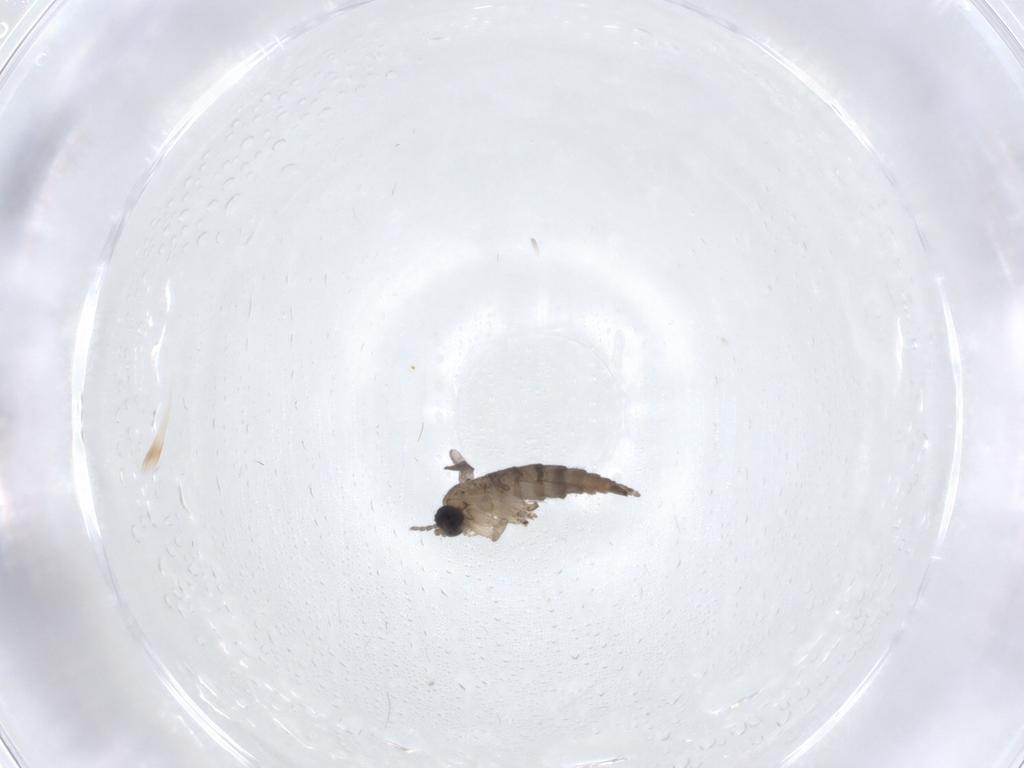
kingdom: Animalia
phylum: Arthropoda
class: Insecta
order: Diptera
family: Sciaridae
